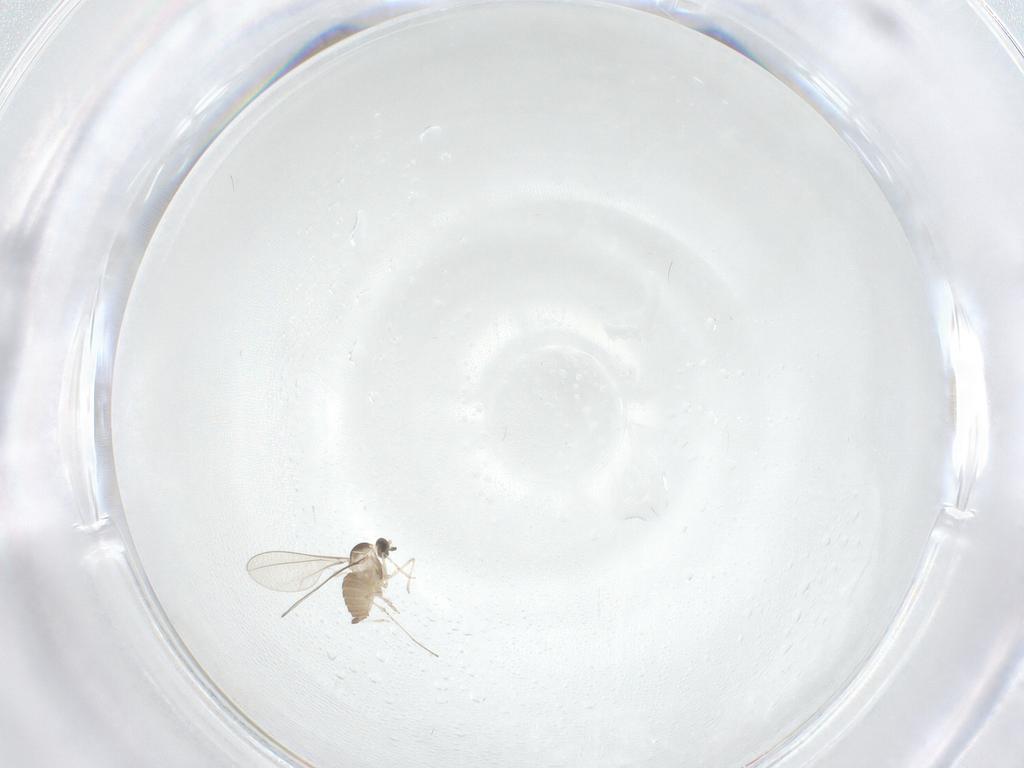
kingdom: Animalia
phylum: Arthropoda
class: Insecta
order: Diptera
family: Cecidomyiidae
